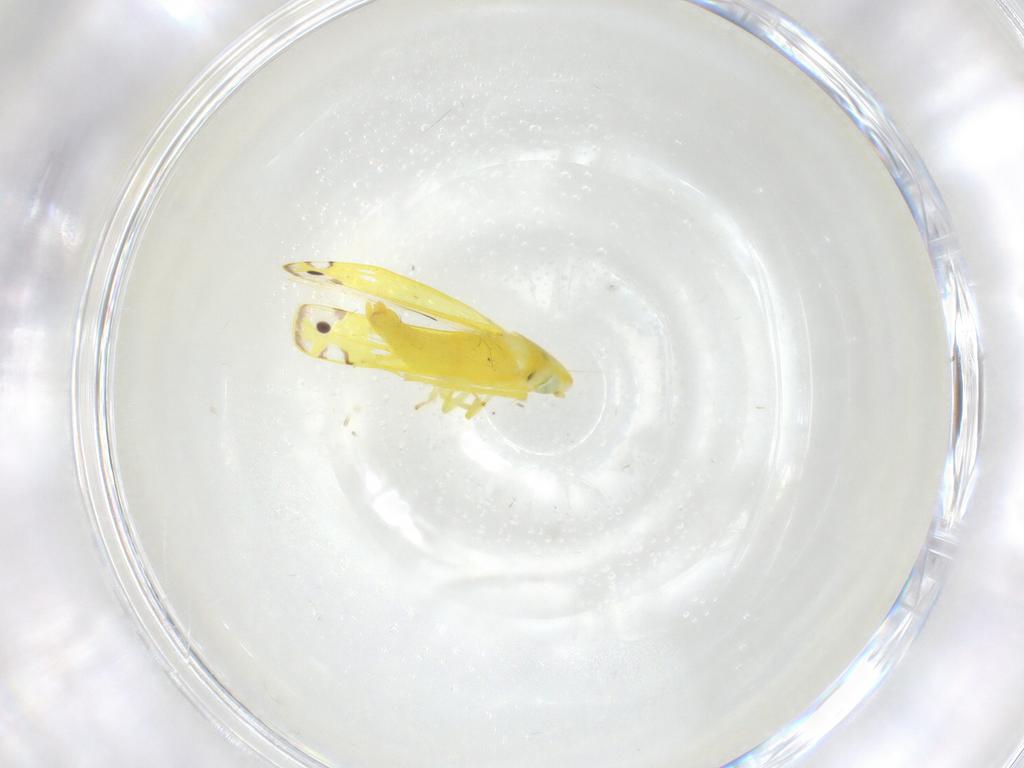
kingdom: Animalia
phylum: Arthropoda
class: Insecta
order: Hemiptera
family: Cicadellidae
